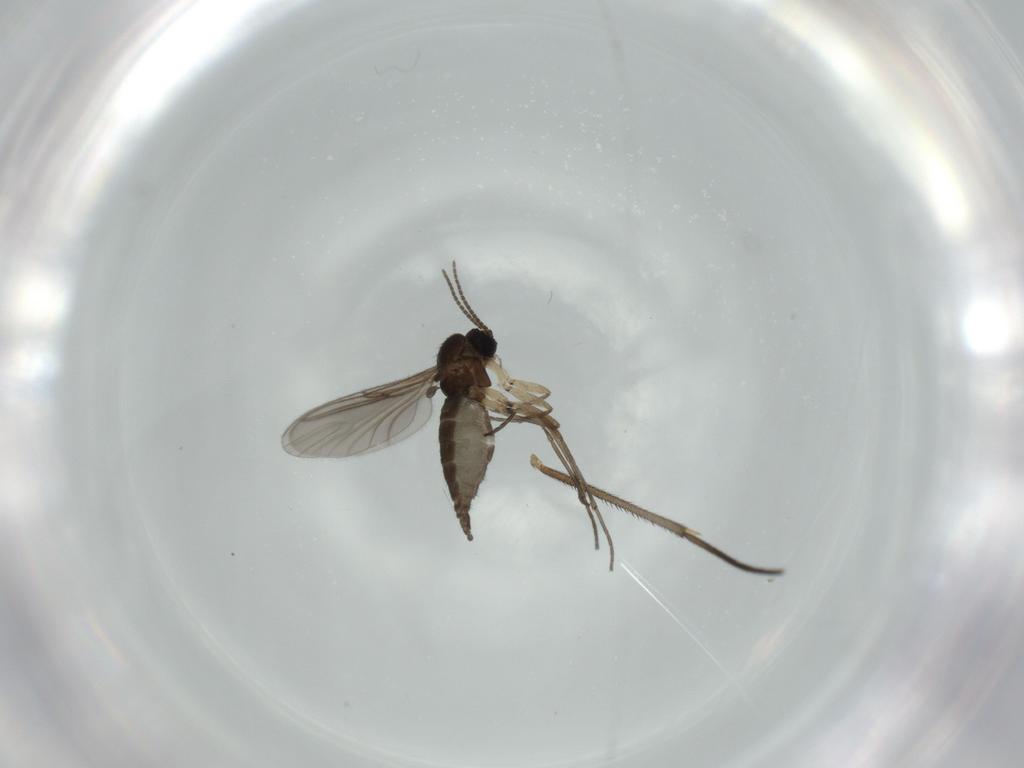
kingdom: Animalia
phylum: Arthropoda
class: Insecta
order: Diptera
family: Sciaridae
